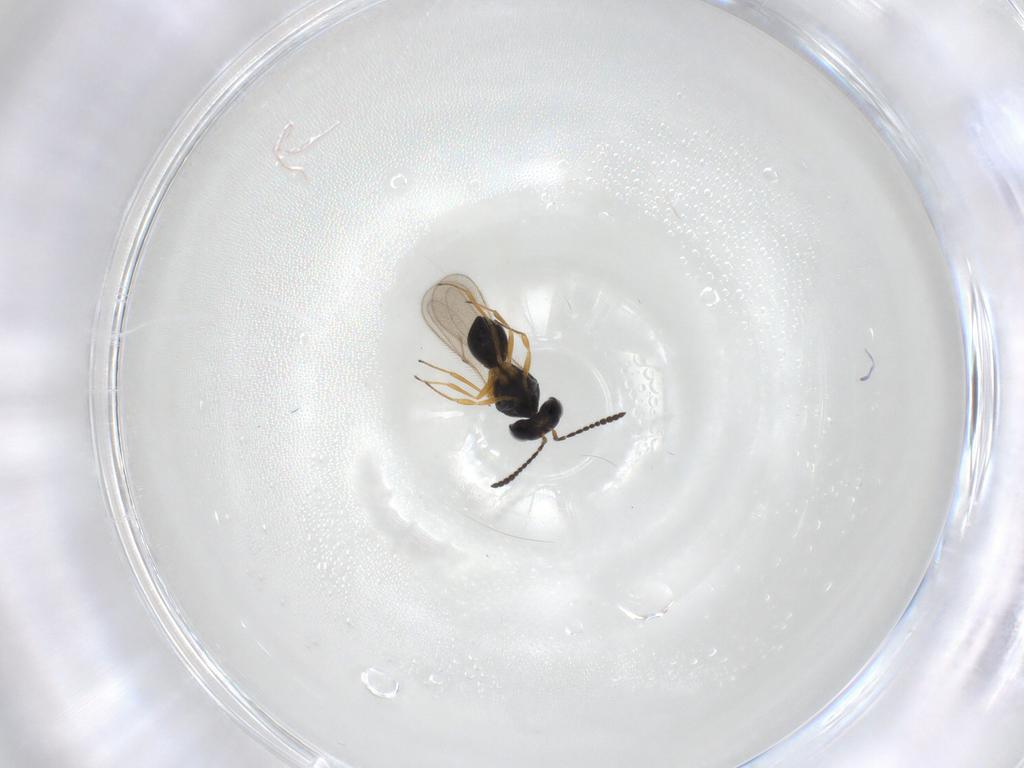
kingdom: Animalia
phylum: Arthropoda
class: Insecta
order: Hymenoptera
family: Scelionidae
